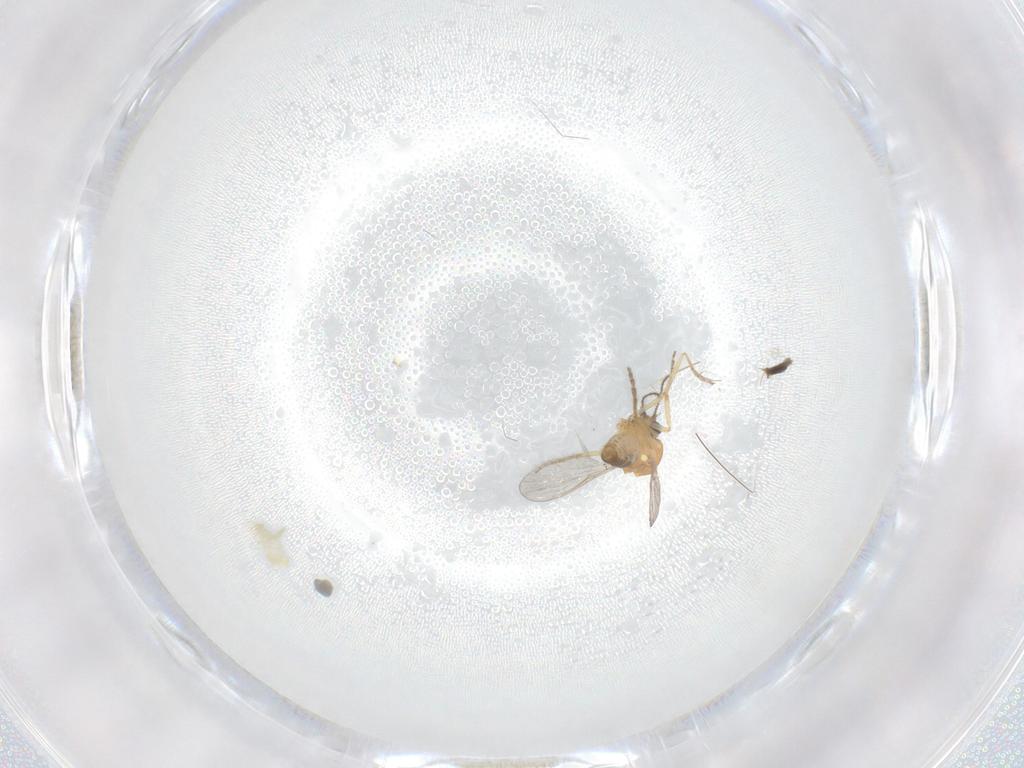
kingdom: Animalia
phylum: Arthropoda
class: Insecta
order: Diptera
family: Ceratopogonidae
